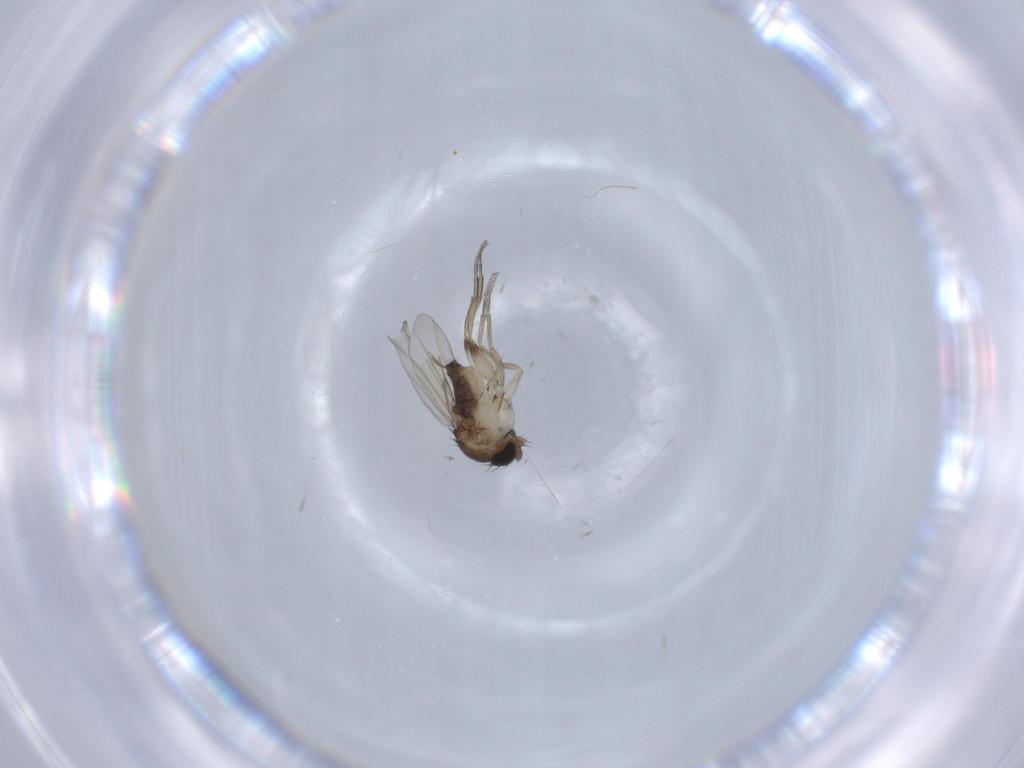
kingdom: Animalia
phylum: Arthropoda
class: Insecta
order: Diptera
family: Phoridae
